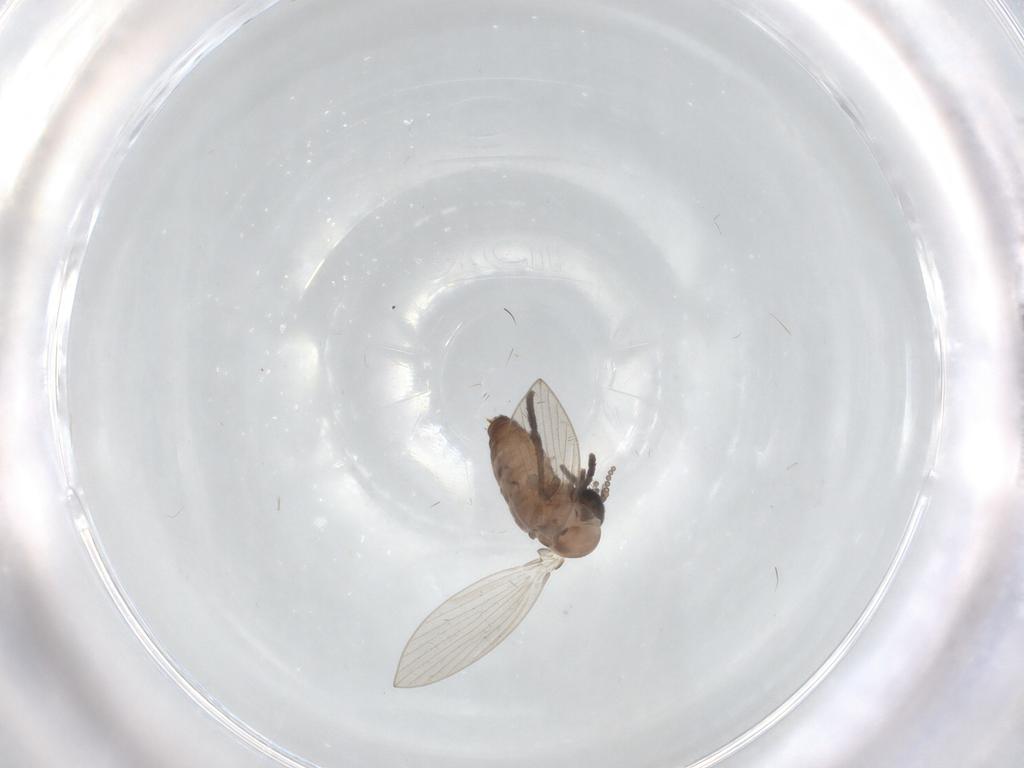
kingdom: Animalia
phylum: Arthropoda
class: Insecta
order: Diptera
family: Psychodidae
